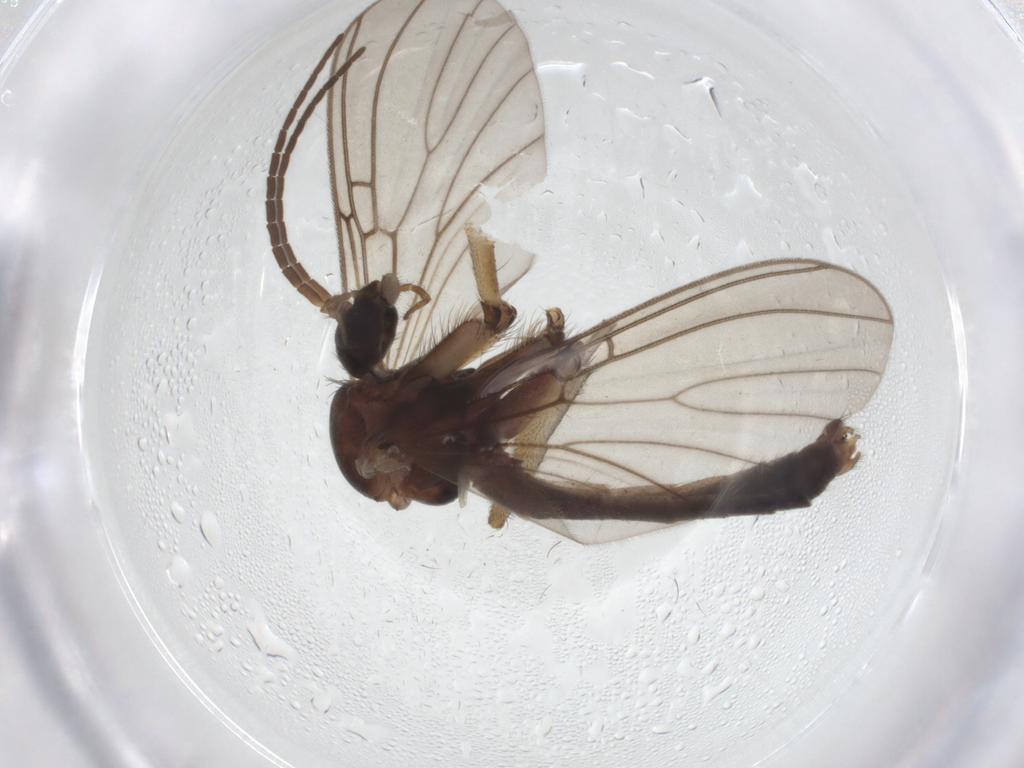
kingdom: Animalia
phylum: Arthropoda
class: Insecta
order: Diptera
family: Mycetophilidae
